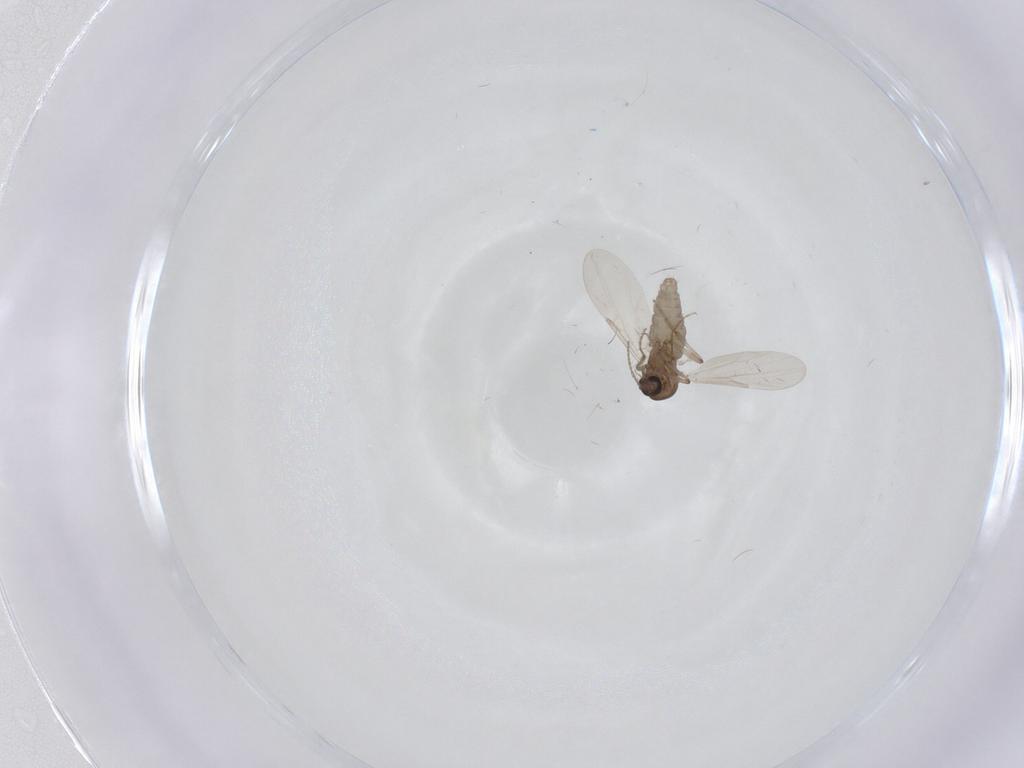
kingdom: Animalia
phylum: Arthropoda
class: Insecta
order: Diptera
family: Ceratopogonidae
